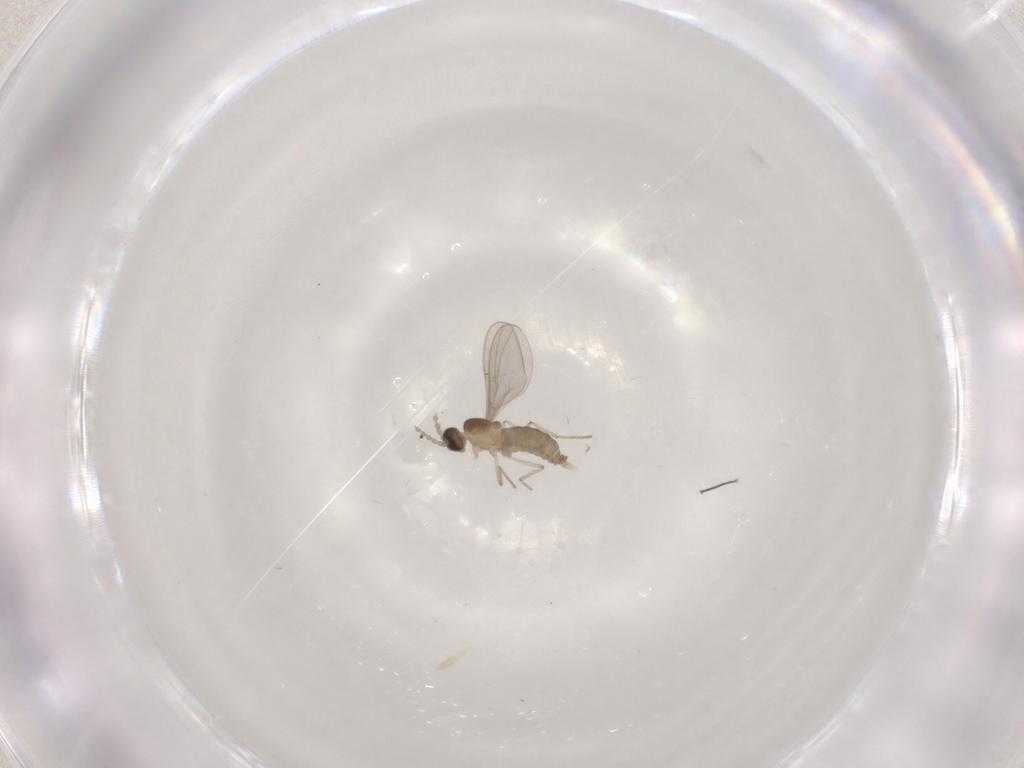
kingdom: Animalia
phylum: Arthropoda
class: Insecta
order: Diptera
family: Cecidomyiidae
